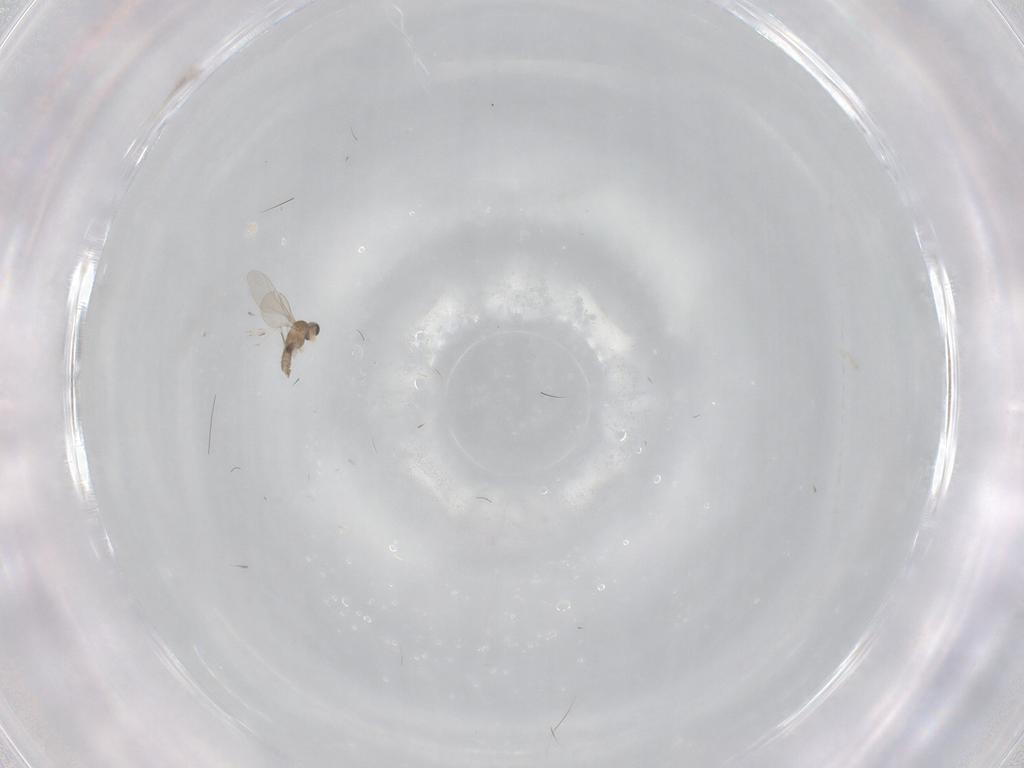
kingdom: Animalia
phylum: Arthropoda
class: Insecta
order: Diptera
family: Cecidomyiidae
